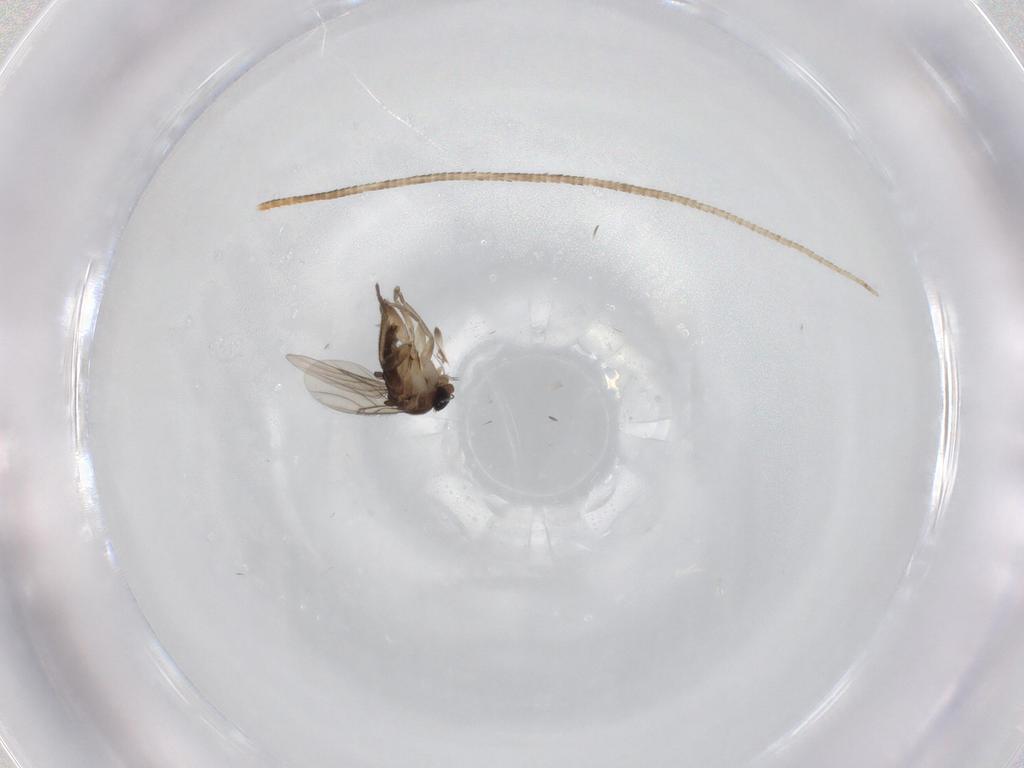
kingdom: Animalia
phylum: Arthropoda
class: Insecta
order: Diptera
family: Phoridae
